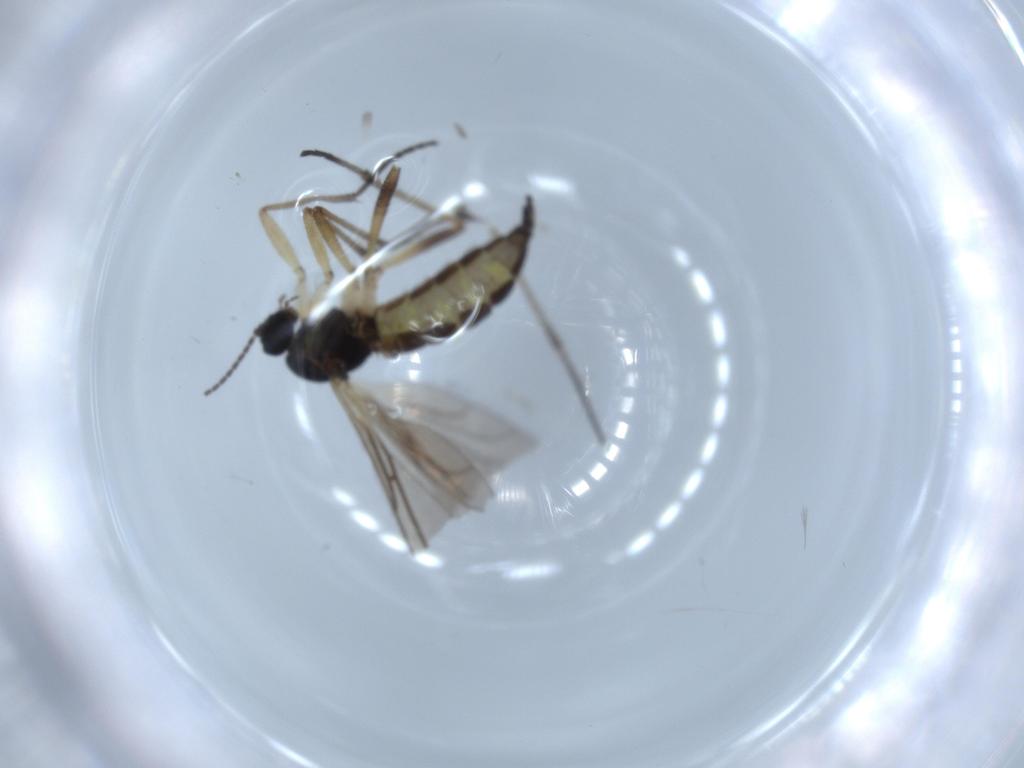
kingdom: Animalia
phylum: Arthropoda
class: Insecta
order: Diptera
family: Sciaridae
